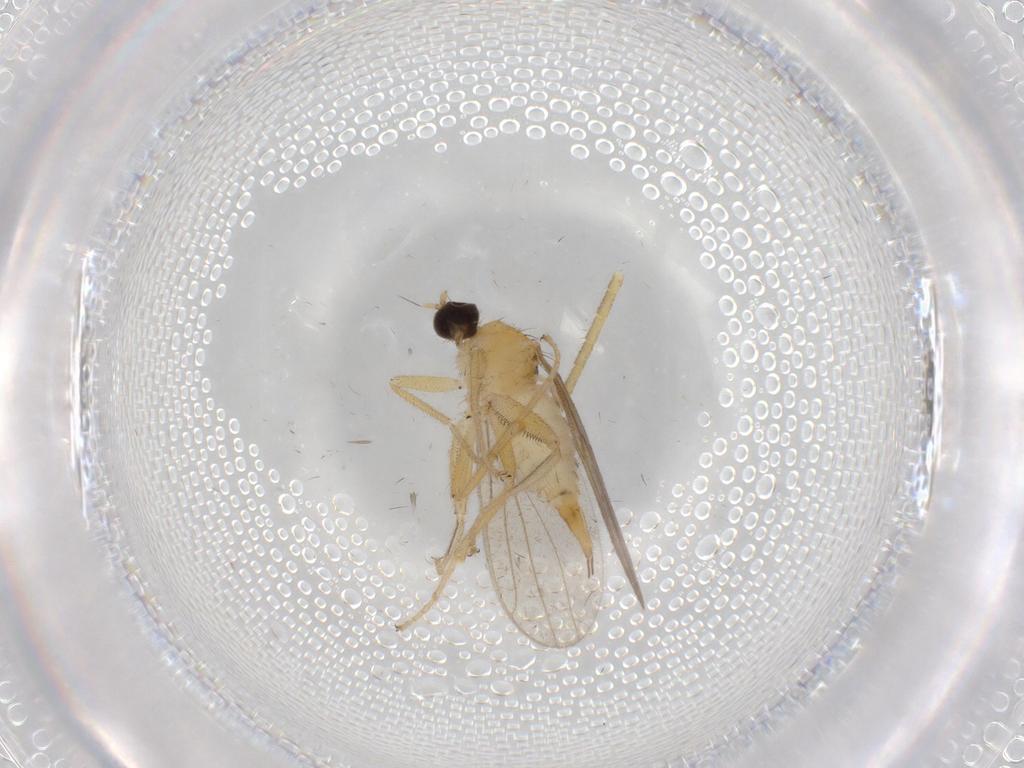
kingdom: Animalia
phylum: Arthropoda
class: Insecta
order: Diptera
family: Hybotidae
